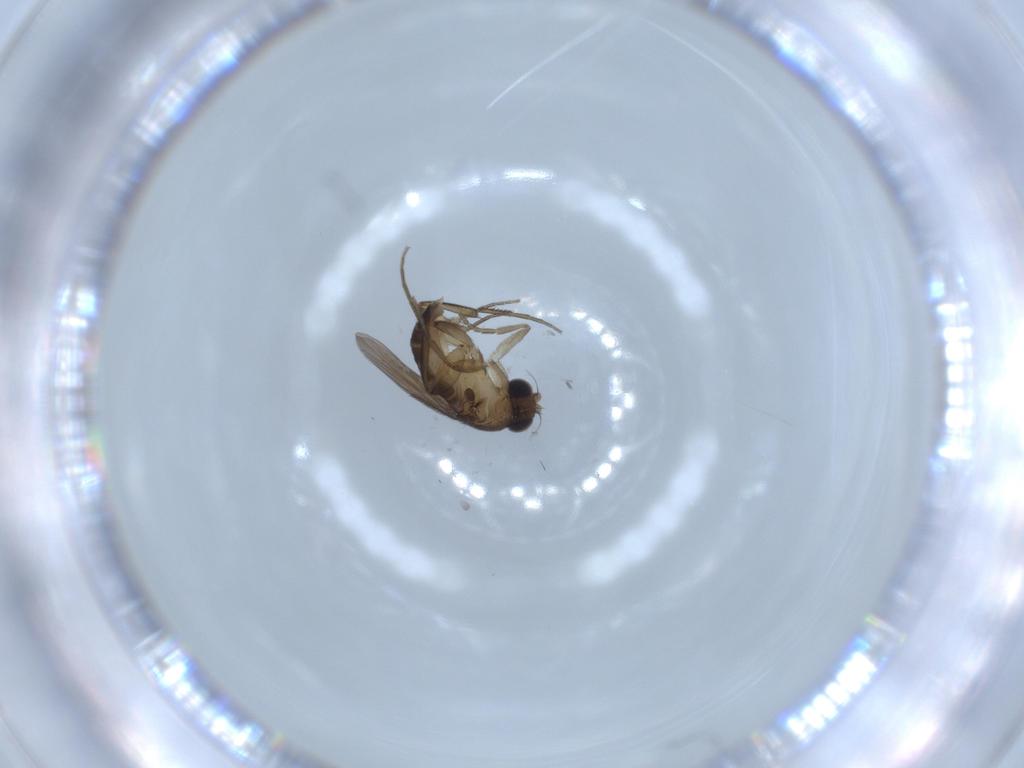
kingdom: Animalia
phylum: Arthropoda
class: Insecta
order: Diptera
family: Phoridae
